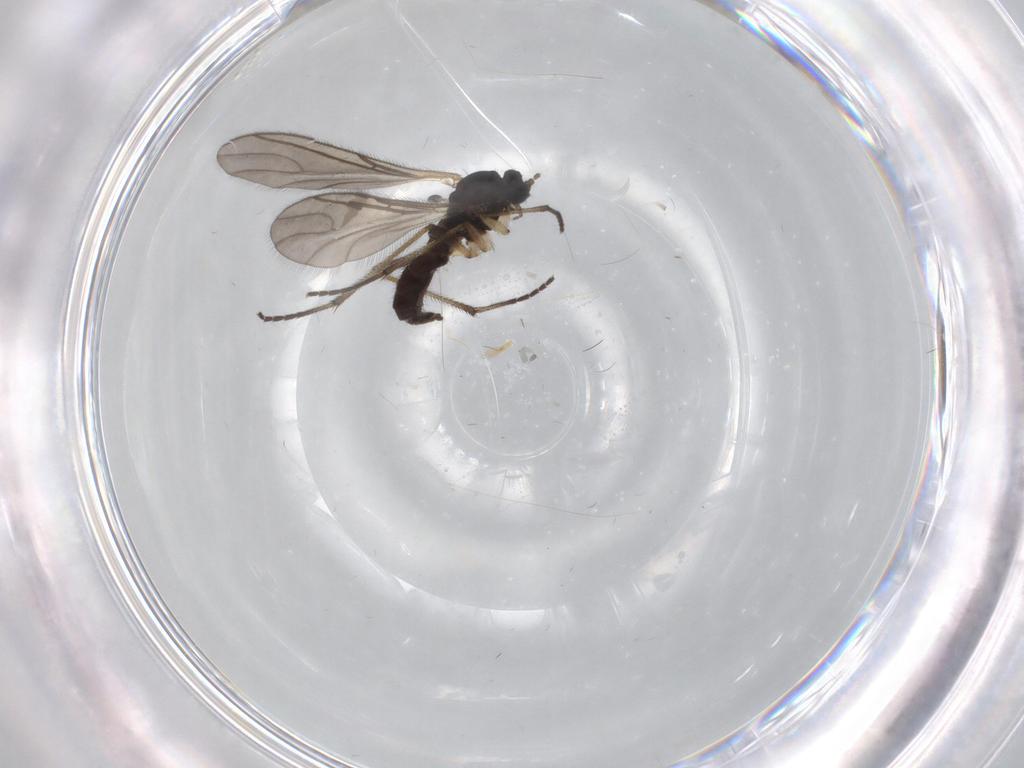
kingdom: Animalia
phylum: Arthropoda
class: Insecta
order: Diptera
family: Sciaridae
